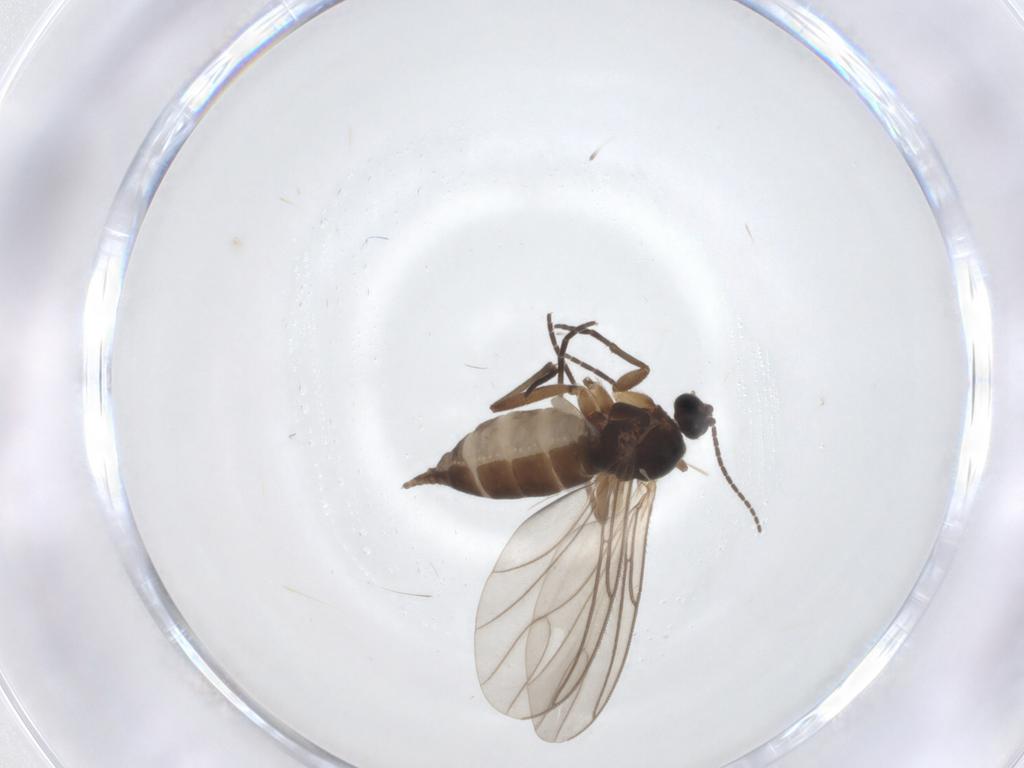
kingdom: Animalia
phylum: Arthropoda
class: Insecta
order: Diptera
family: Sciaridae
